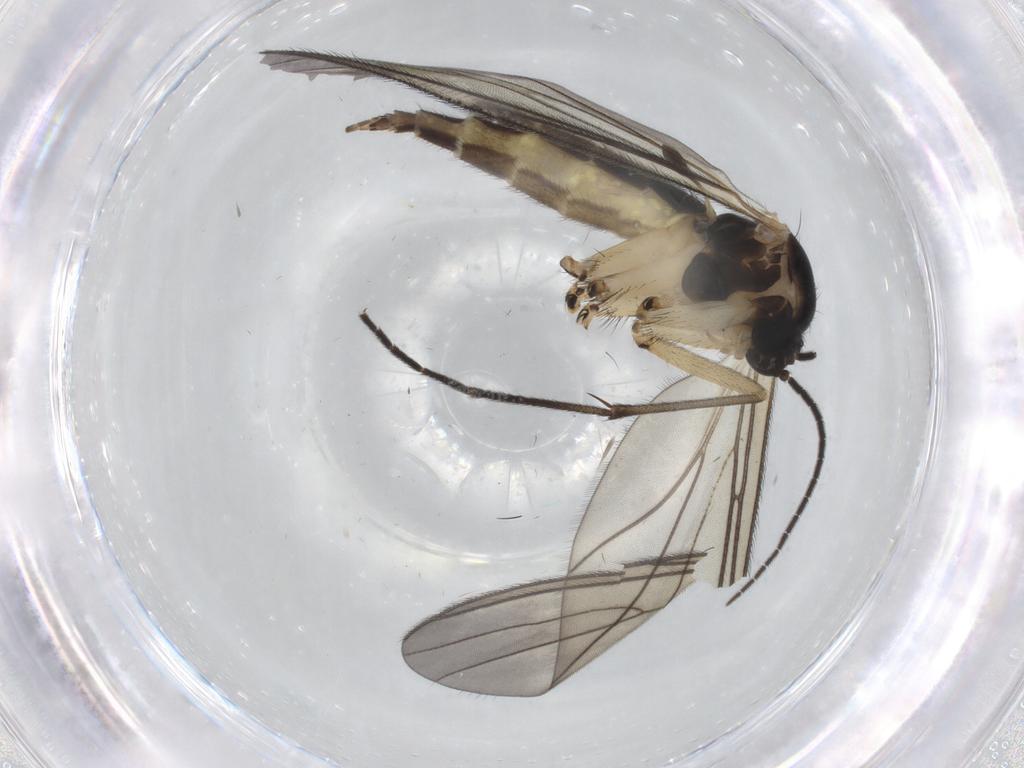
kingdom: Animalia
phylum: Arthropoda
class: Insecta
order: Diptera
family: Sciaridae
